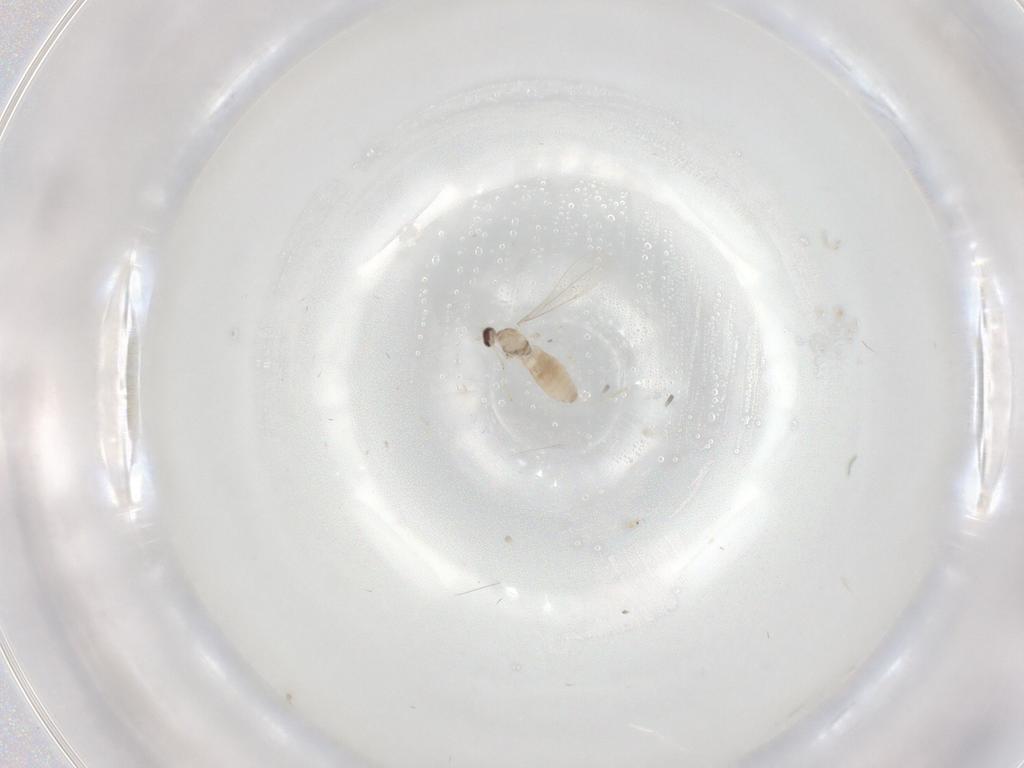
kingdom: Animalia
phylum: Arthropoda
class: Insecta
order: Diptera
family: Cecidomyiidae
